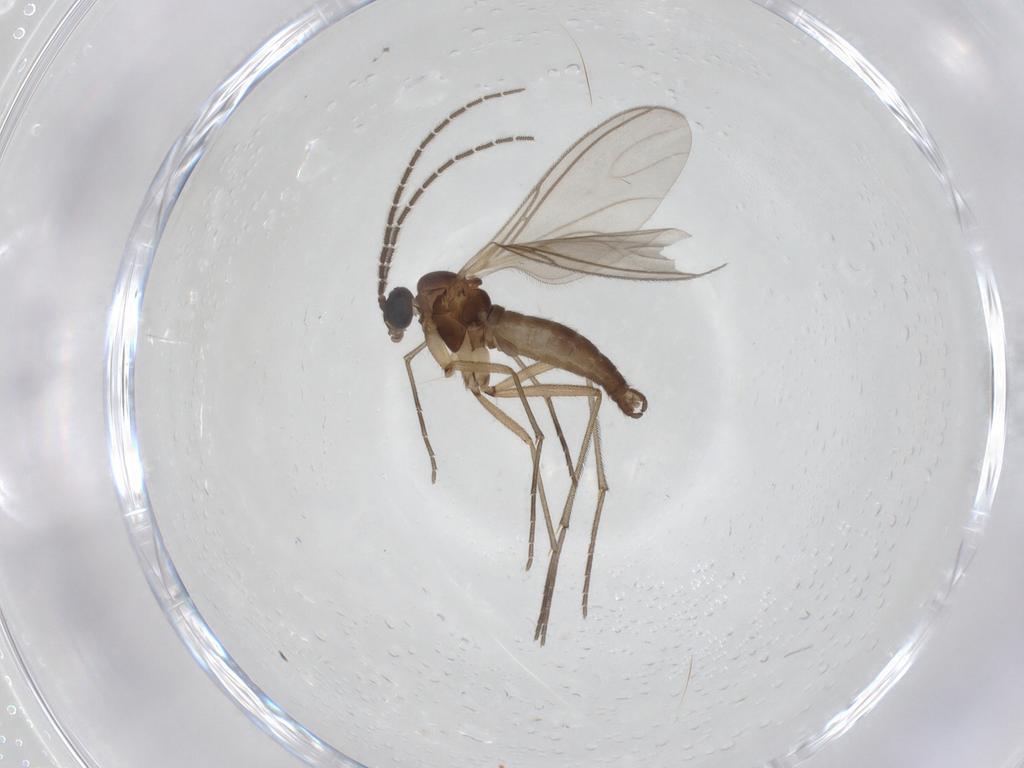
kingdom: Animalia
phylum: Arthropoda
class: Insecta
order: Diptera
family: Sciaridae
